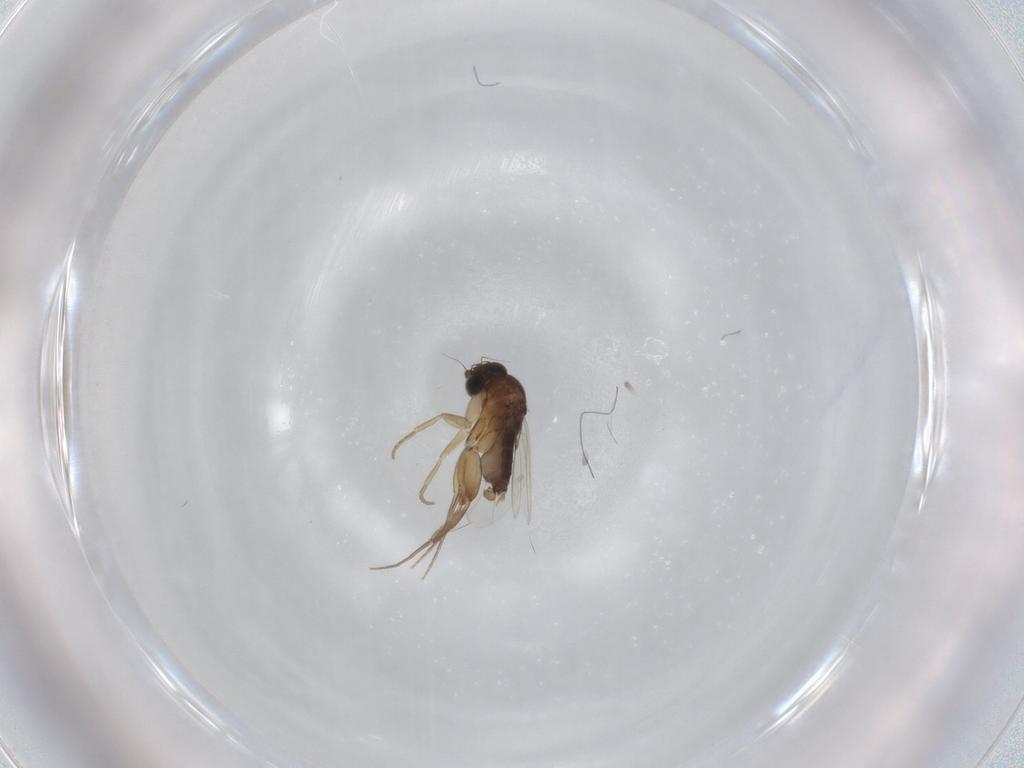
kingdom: Animalia
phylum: Arthropoda
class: Insecta
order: Diptera
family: Phoridae
